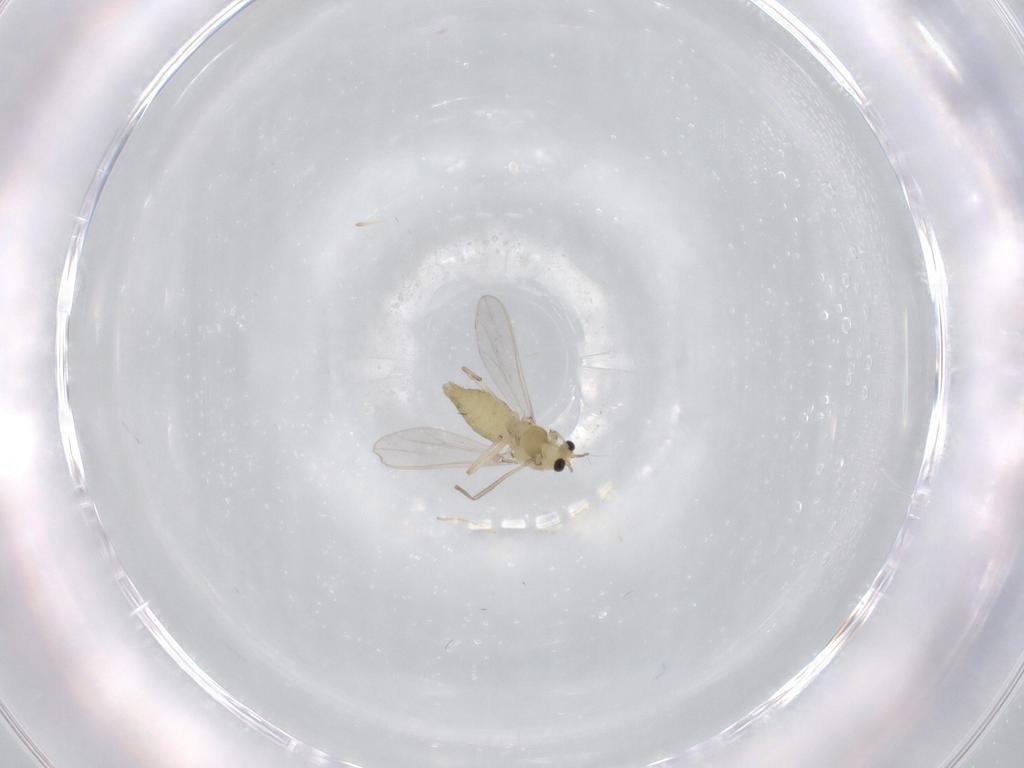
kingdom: Animalia
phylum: Arthropoda
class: Insecta
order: Diptera
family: Chironomidae
